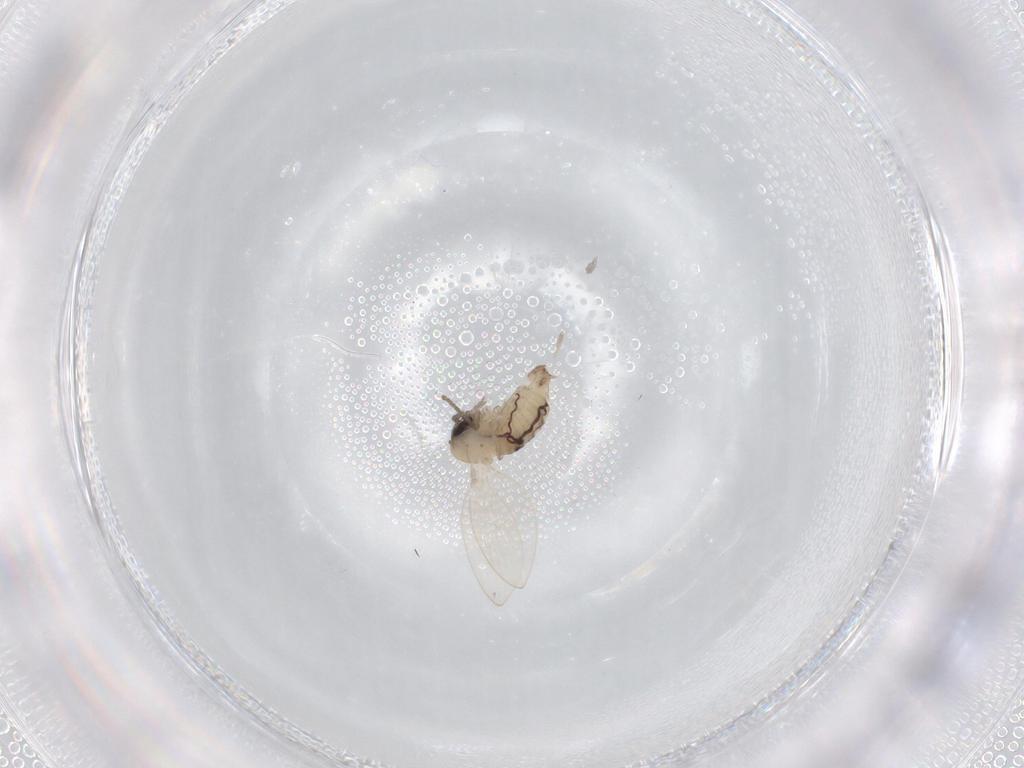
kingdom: Animalia
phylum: Arthropoda
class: Insecta
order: Diptera
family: Psychodidae
